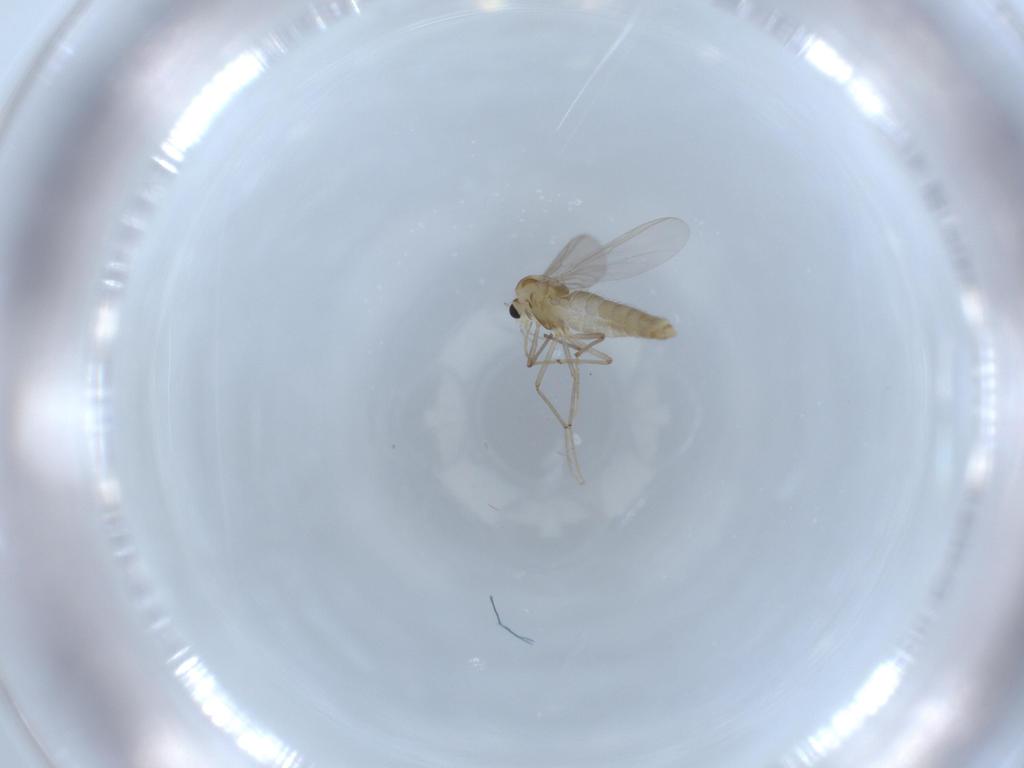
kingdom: Animalia
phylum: Arthropoda
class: Insecta
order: Diptera
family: Chironomidae
